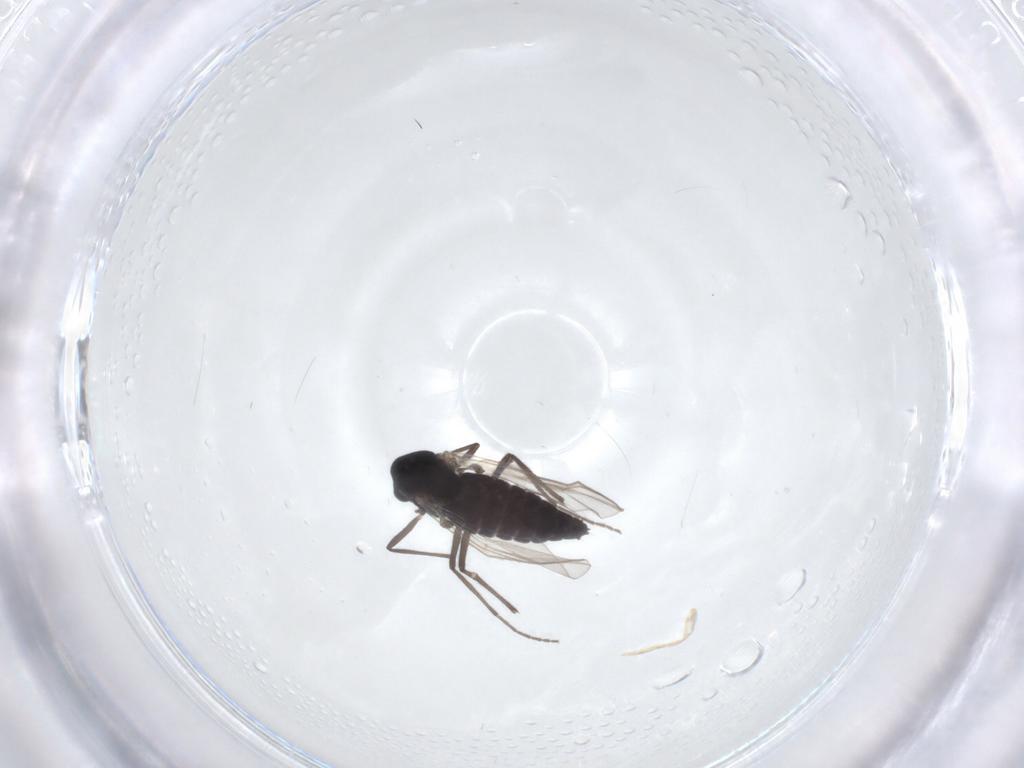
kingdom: Animalia
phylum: Arthropoda
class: Insecta
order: Diptera
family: Chironomidae
